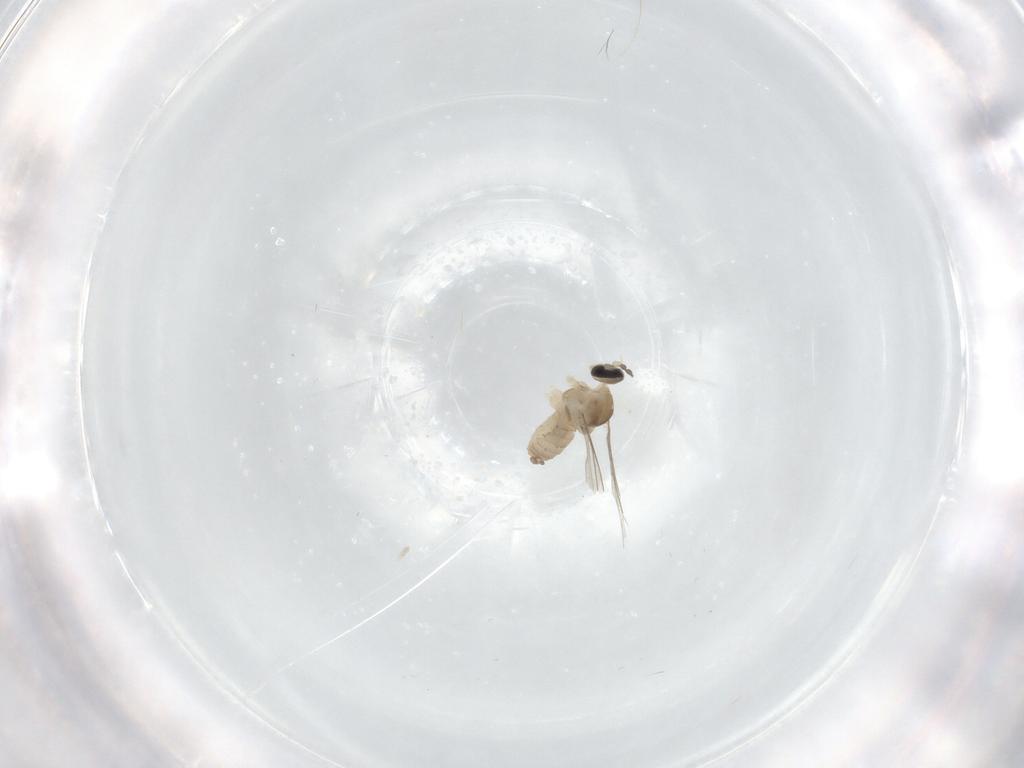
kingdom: Animalia
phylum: Arthropoda
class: Insecta
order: Diptera
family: Cecidomyiidae
